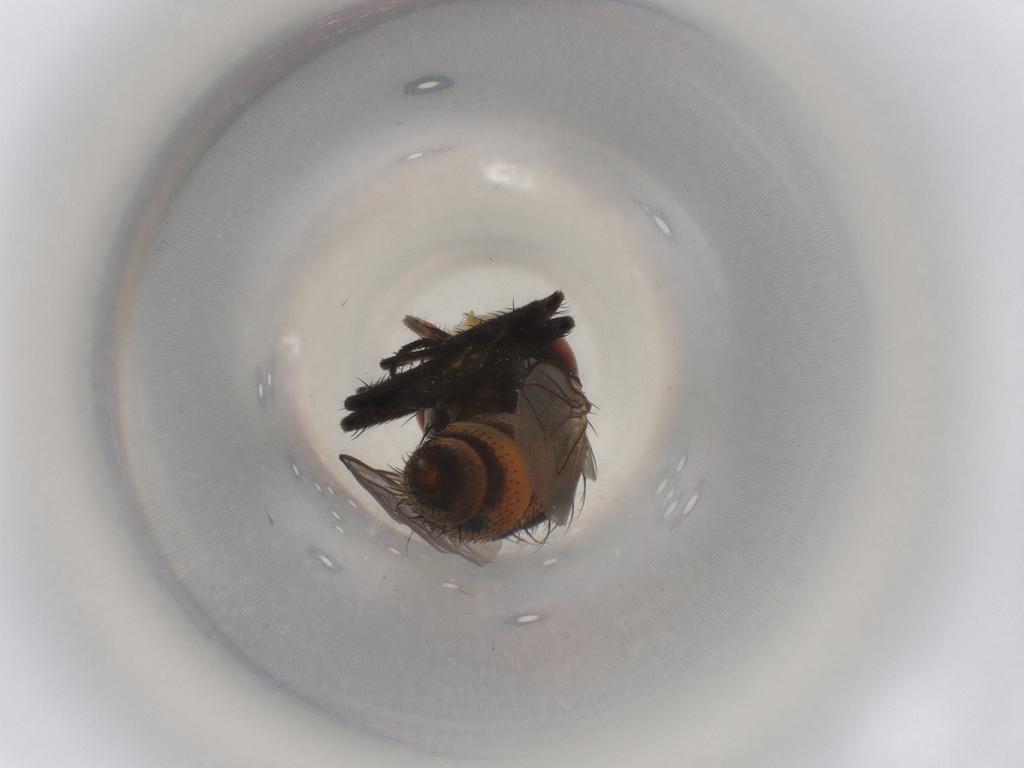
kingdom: Animalia
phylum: Arthropoda
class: Insecta
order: Diptera
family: Sarcophagidae
